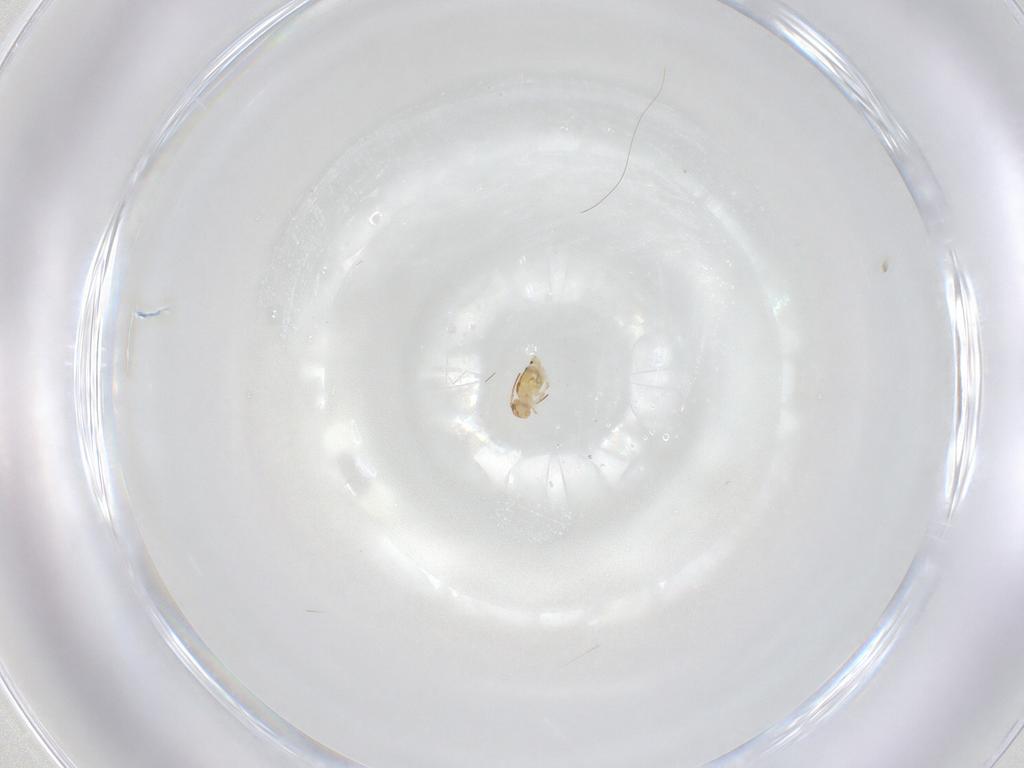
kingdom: Animalia
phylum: Arthropoda
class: Collembola
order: Symphypleona
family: Bourletiellidae
